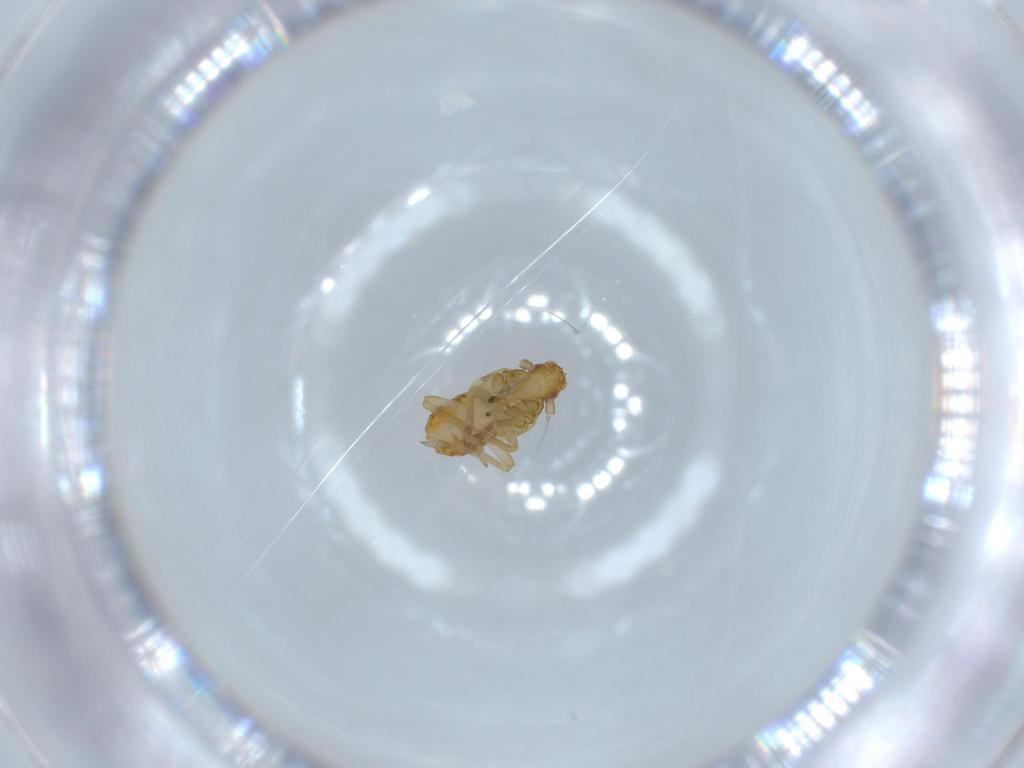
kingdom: Animalia
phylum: Arthropoda
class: Insecta
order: Hemiptera
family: Delphacidae
